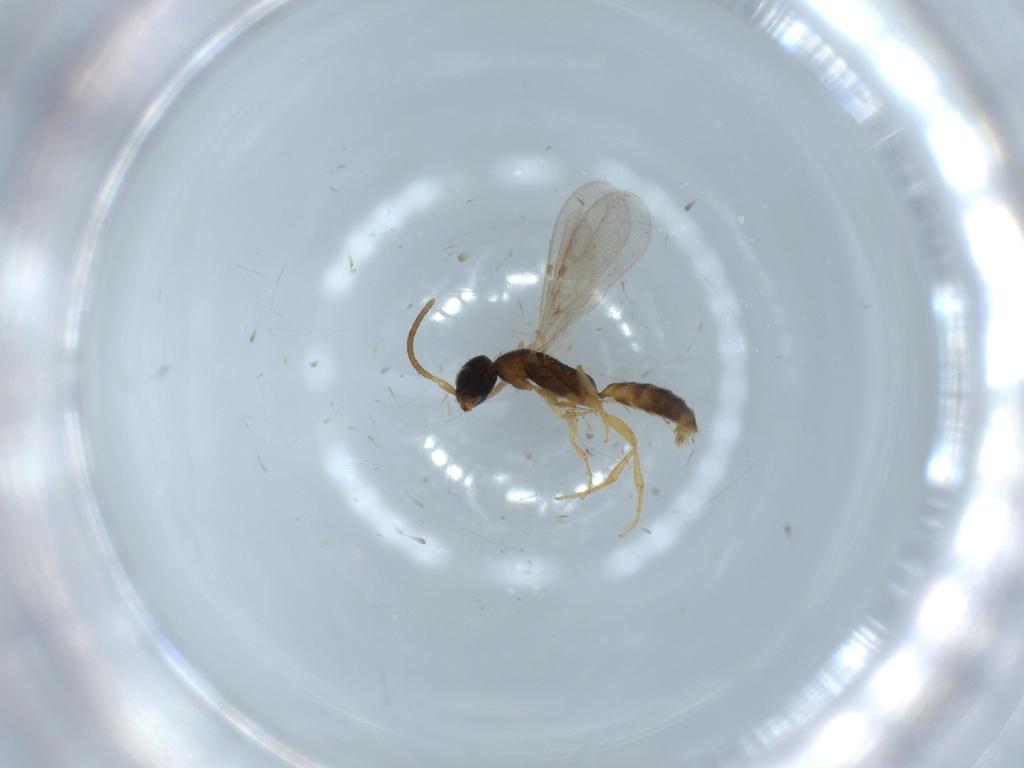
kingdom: Animalia
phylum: Arthropoda
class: Insecta
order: Hymenoptera
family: Bethylidae
